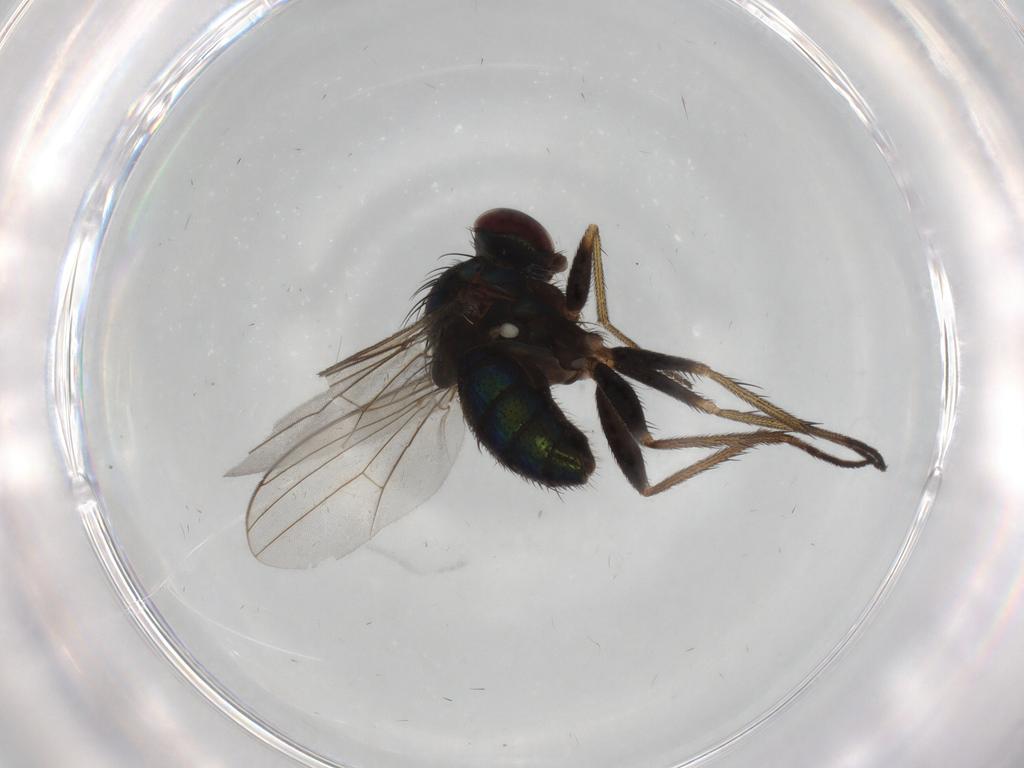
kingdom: Animalia
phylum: Arthropoda
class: Insecta
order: Diptera
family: Dolichopodidae
